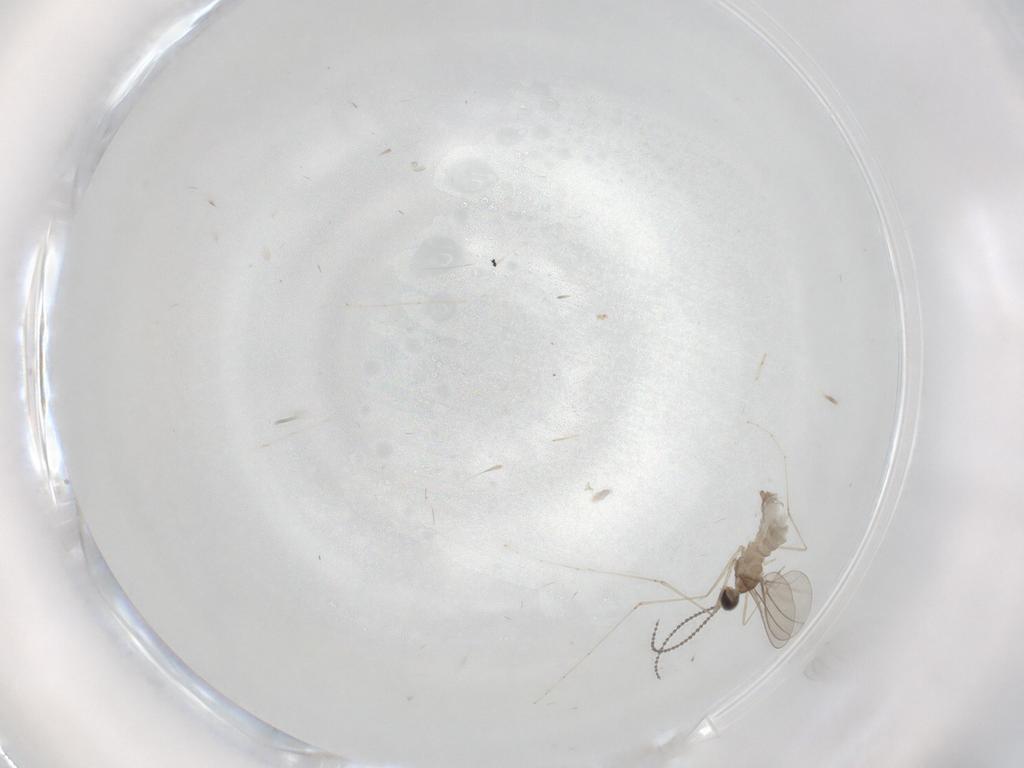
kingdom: Animalia
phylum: Arthropoda
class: Insecta
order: Diptera
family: Cecidomyiidae
